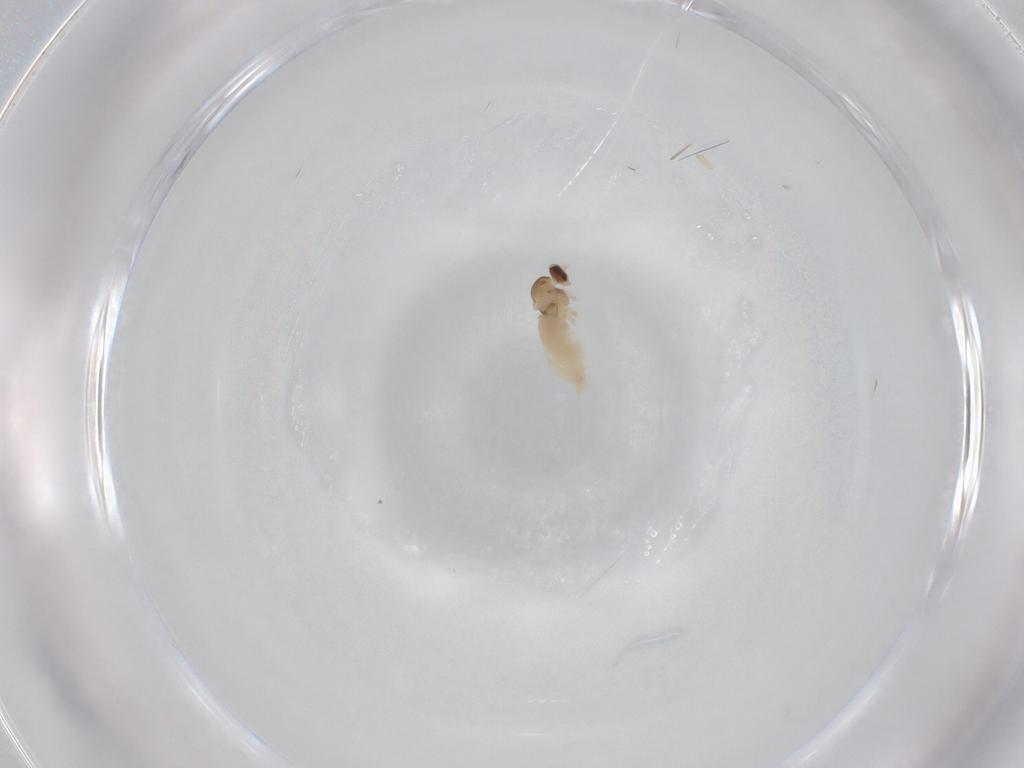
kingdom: Animalia
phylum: Arthropoda
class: Insecta
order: Diptera
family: Cecidomyiidae
